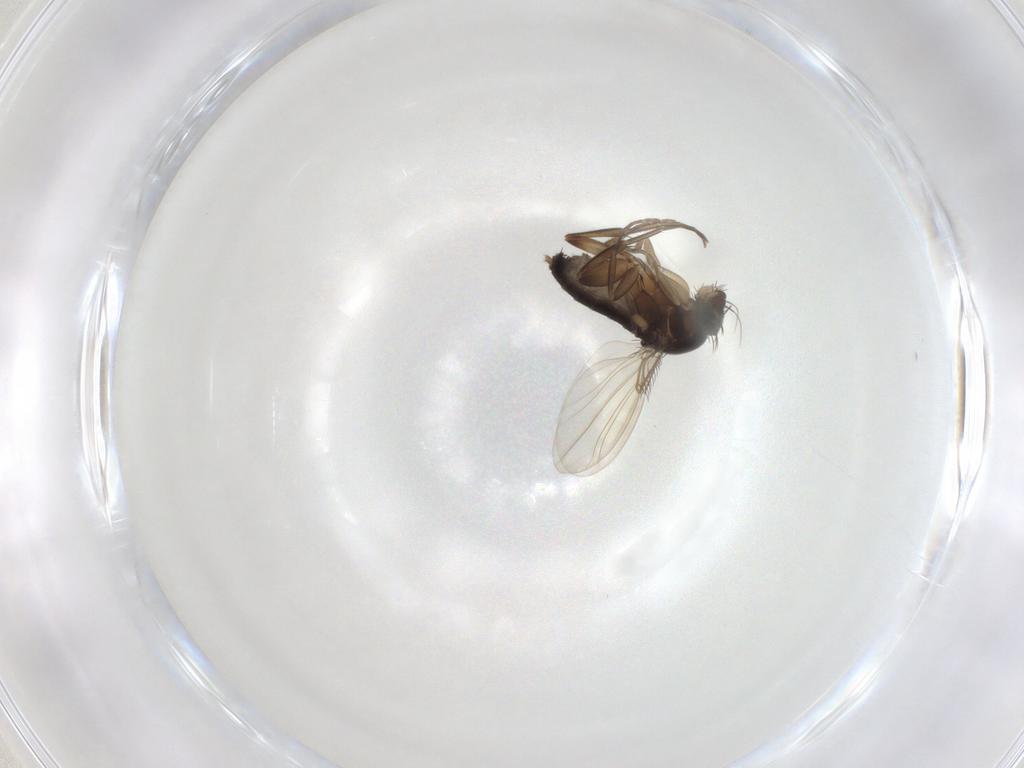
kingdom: Animalia
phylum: Arthropoda
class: Insecta
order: Diptera
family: Phoridae
